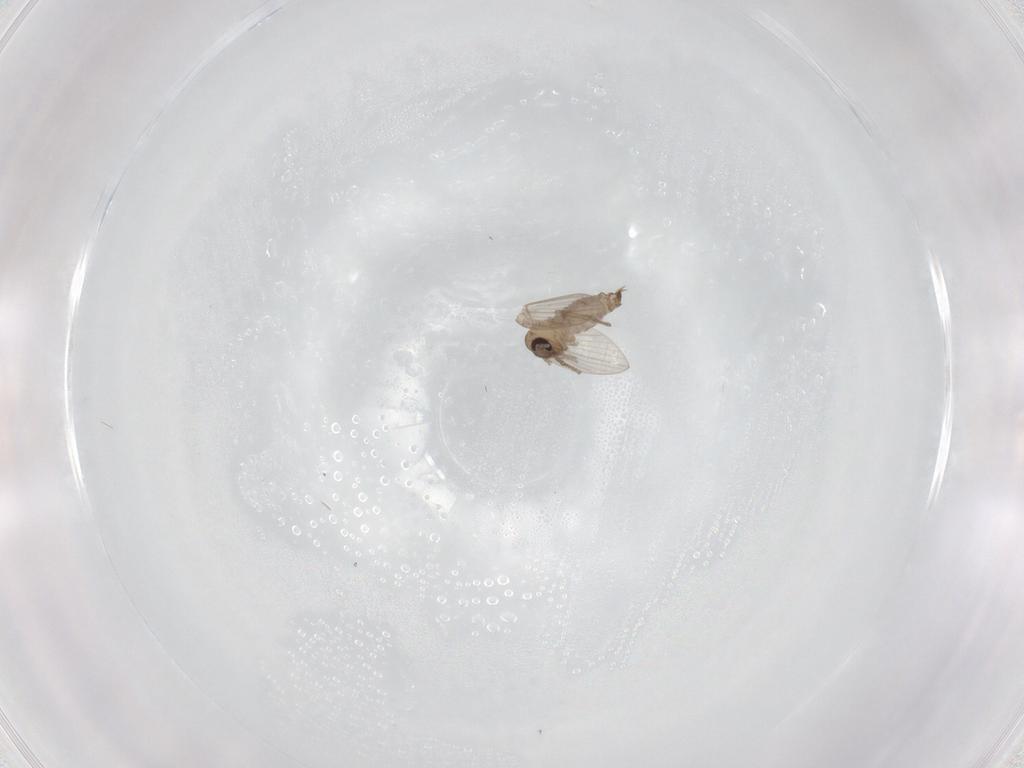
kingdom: Animalia
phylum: Arthropoda
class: Insecta
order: Diptera
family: Psychodidae
